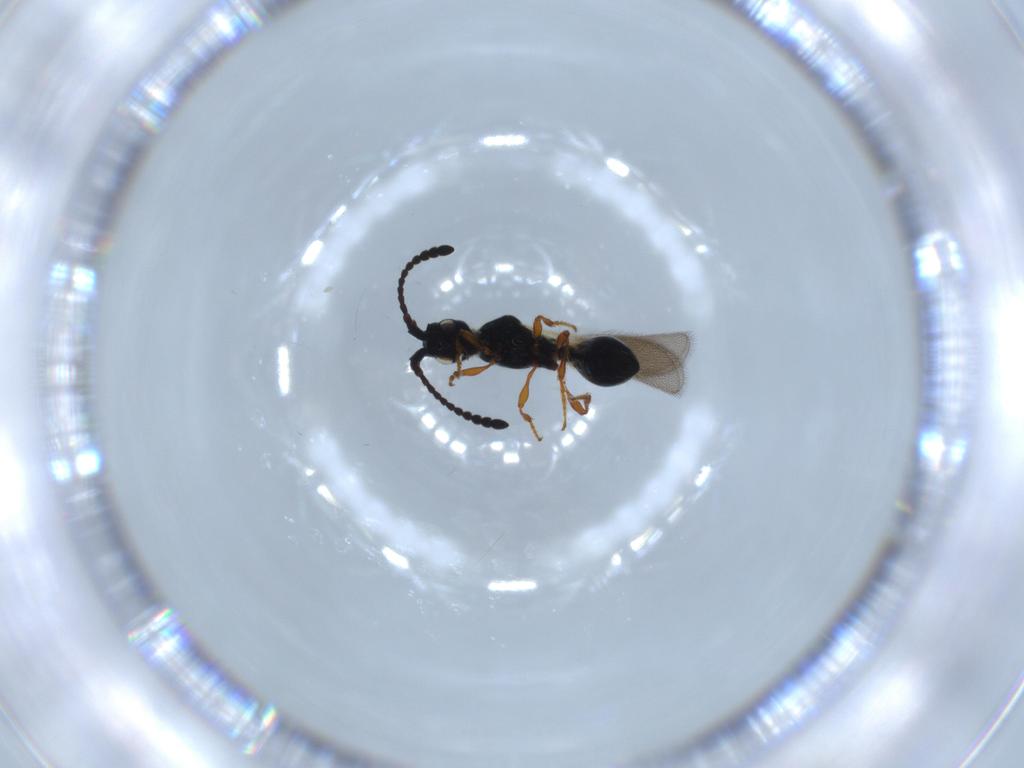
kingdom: Animalia
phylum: Arthropoda
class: Insecta
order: Hymenoptera
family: Diapriidae
